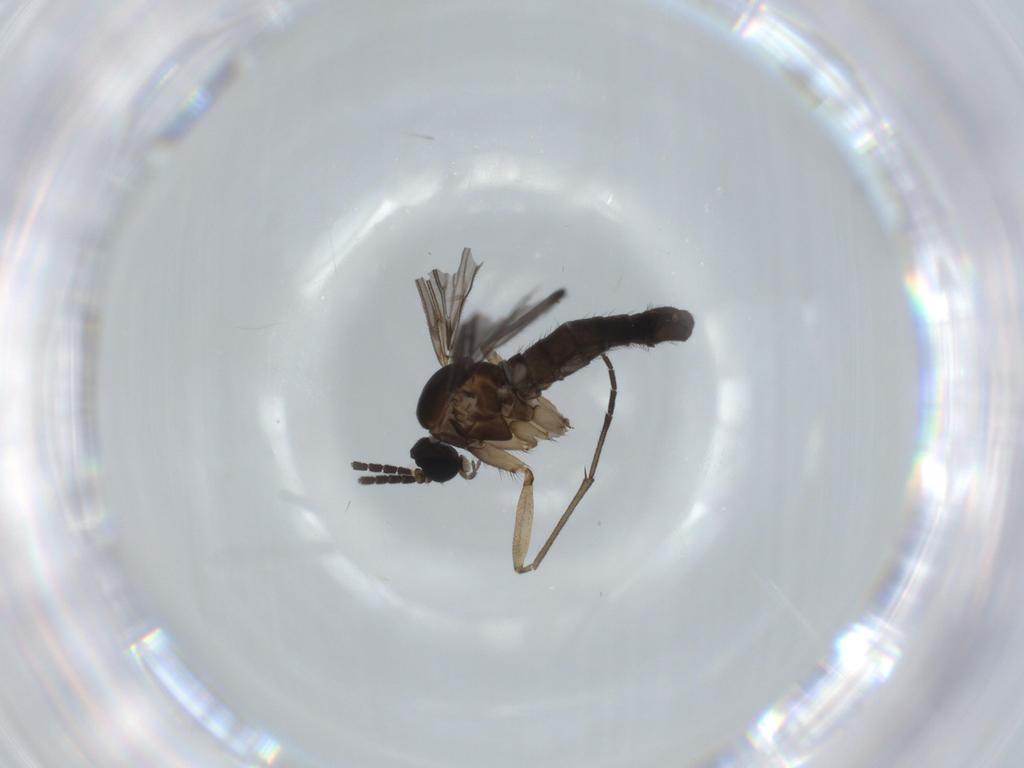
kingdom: Animalia
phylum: Arthropoda
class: Insecta
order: Diptera
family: Sciaridae
